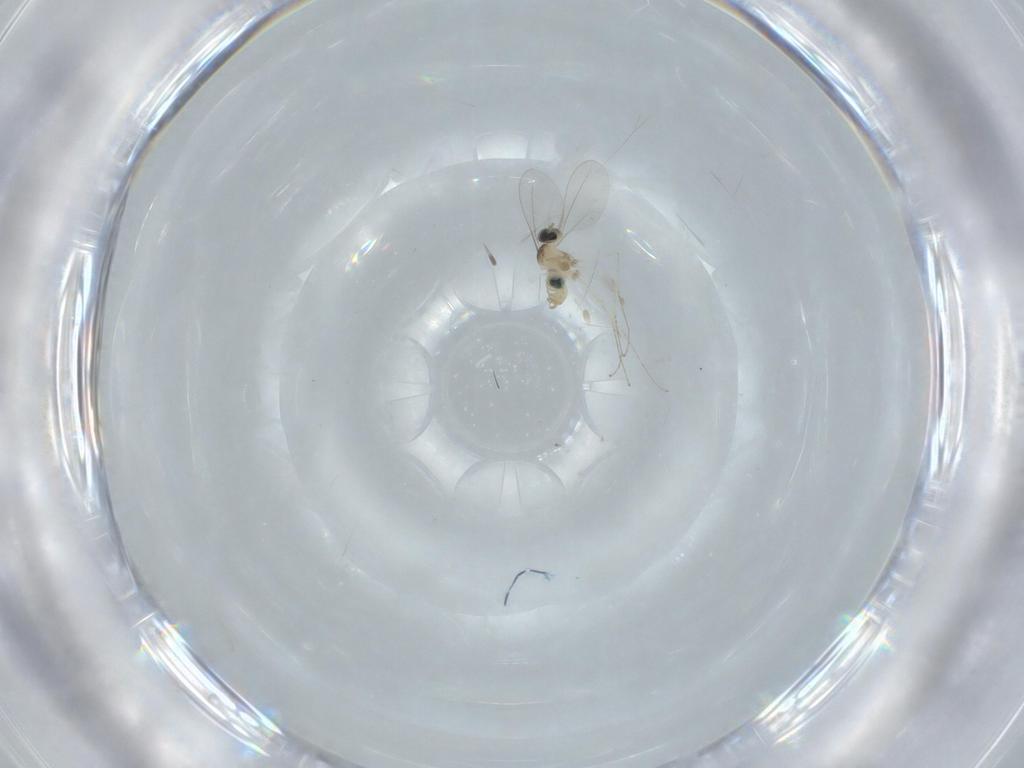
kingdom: Animalia
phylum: Arthropoda
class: Insecta
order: Diptera
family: Cecidomyiidae
